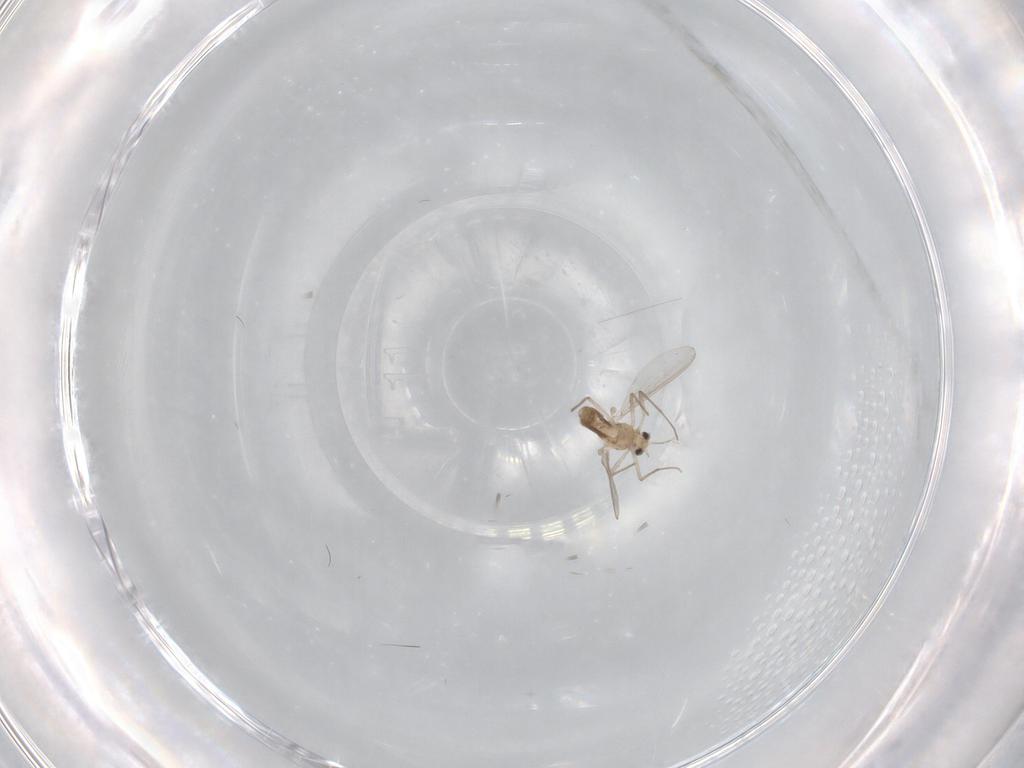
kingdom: Animalia
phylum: Arthropoda
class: Insecta
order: Diptera
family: Chironomidae
